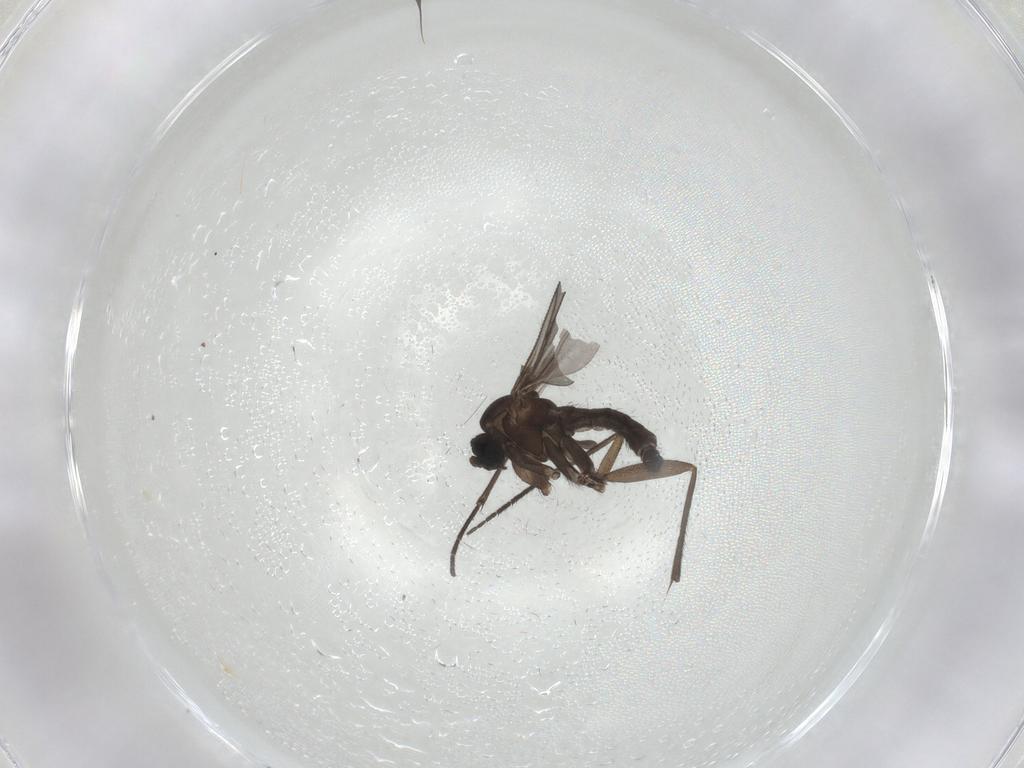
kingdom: Animalia
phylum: Arthropoda
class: Insecta
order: Diptera
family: Sciaridae
